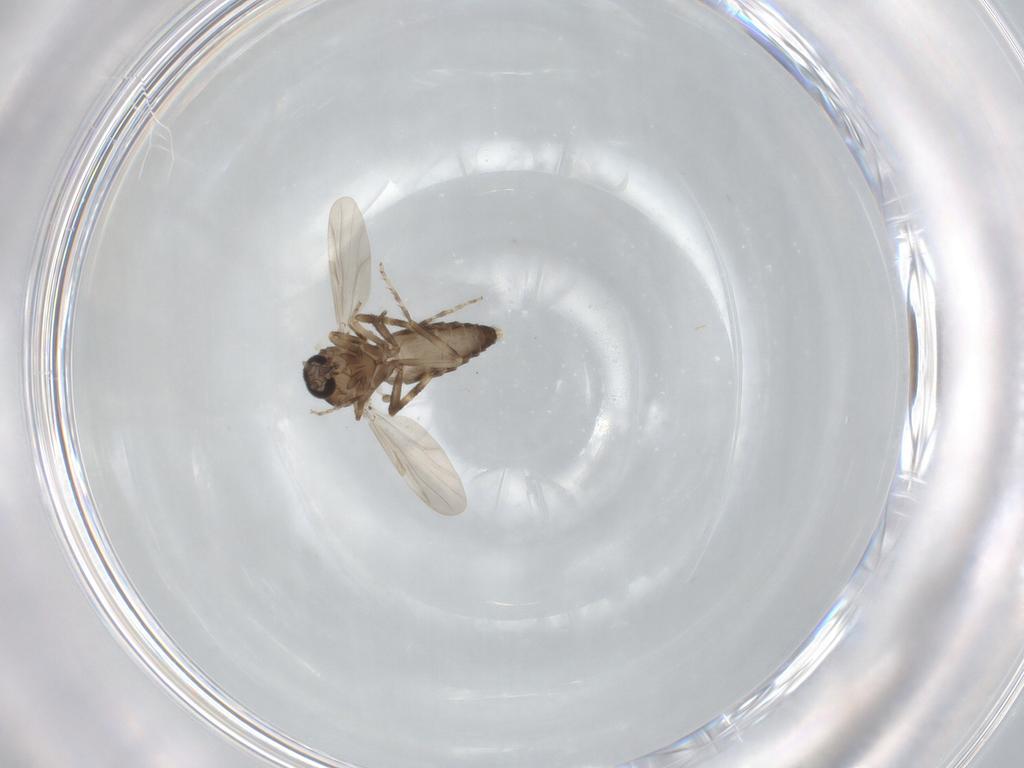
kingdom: Animalia
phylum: Arthropoda
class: Insecta
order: Diptera
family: Ceratopogonidae
